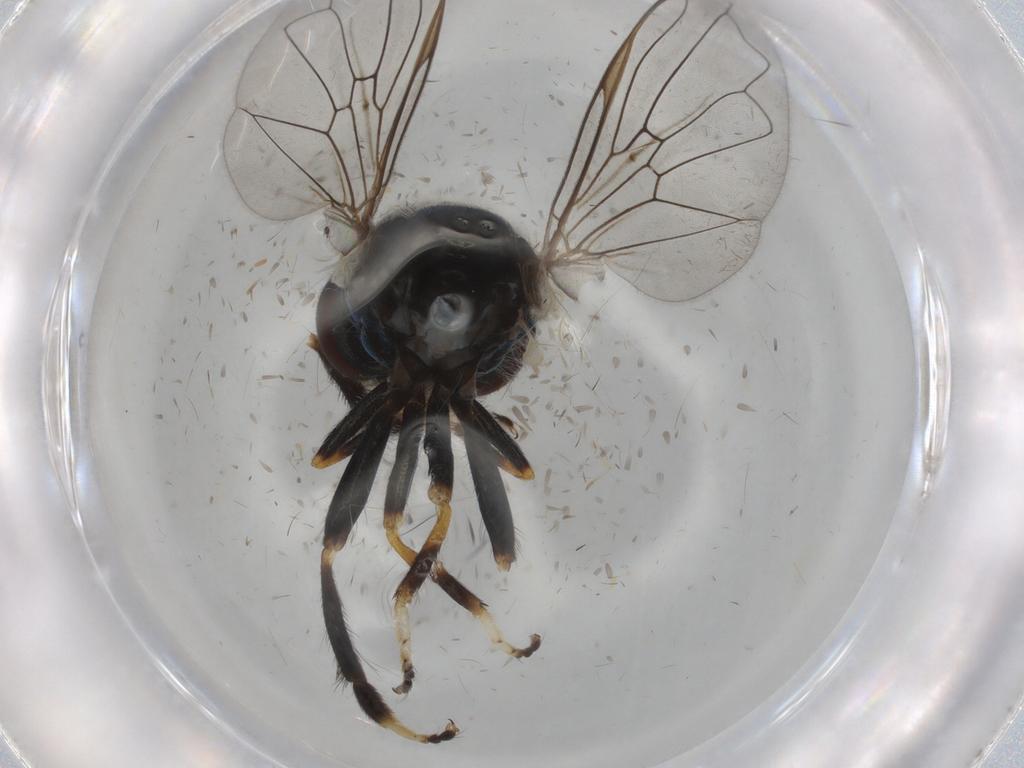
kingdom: Animalia
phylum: Arthropoda
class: Insecta
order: Diptera
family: Syrphidae
